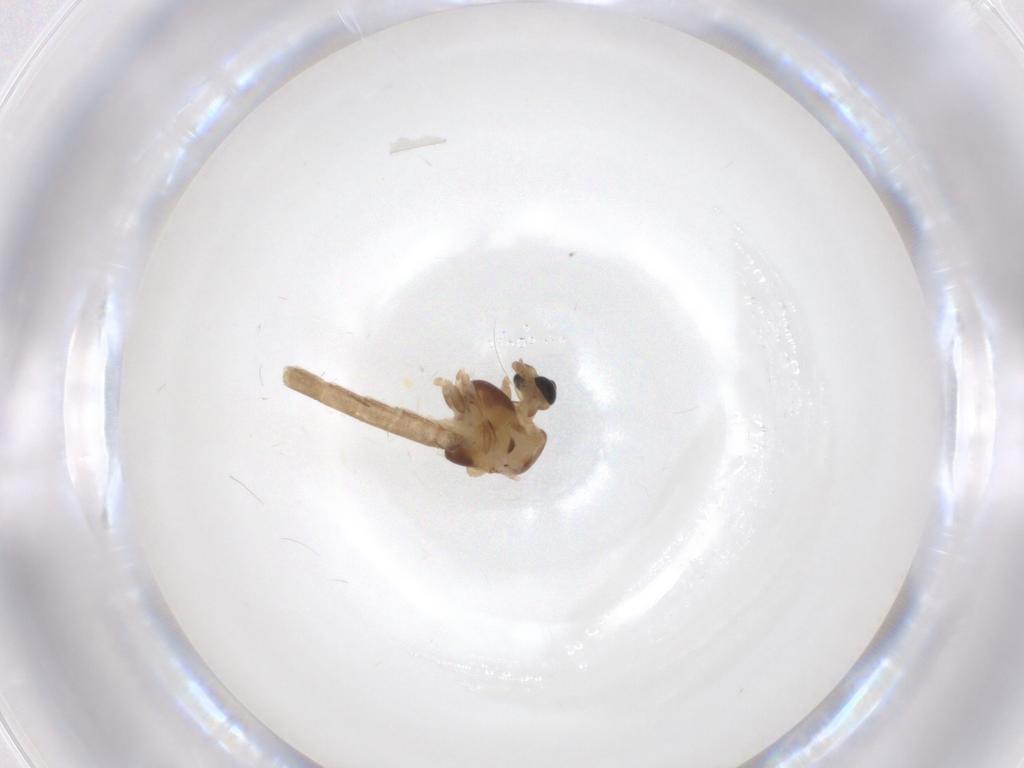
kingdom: Animalia
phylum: Arthropoda
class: Insecta
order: Diptera
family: Chironomidae
